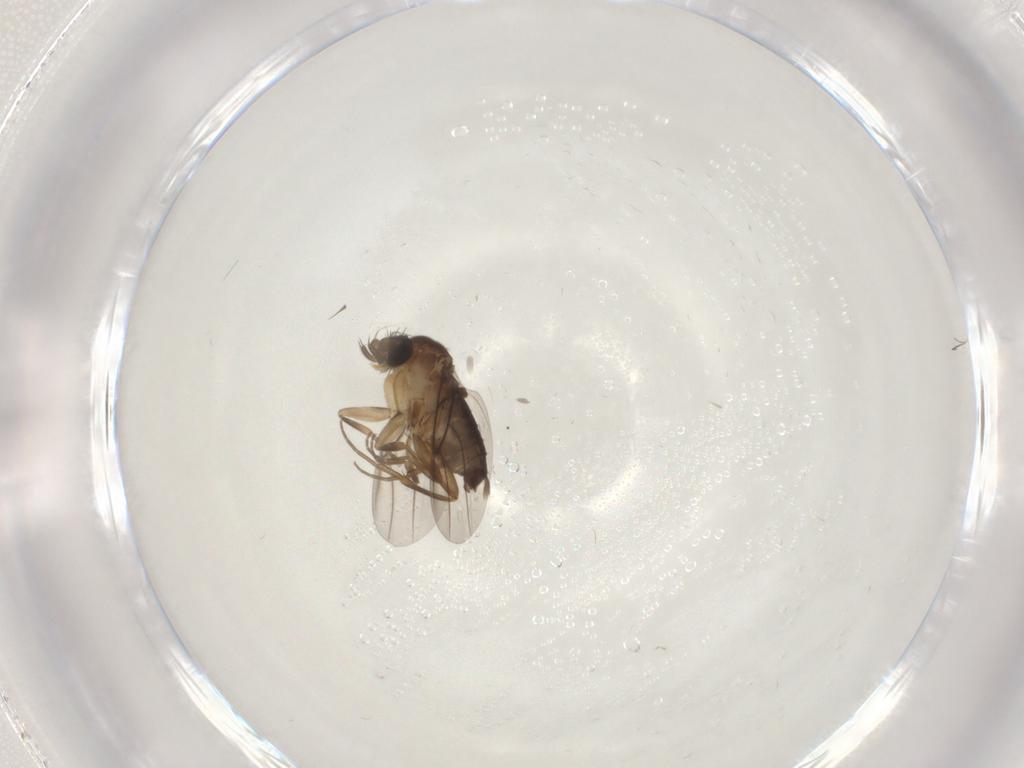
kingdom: Animalia
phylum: Arthropoda
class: Insecta
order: Diptera
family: Phoridae
